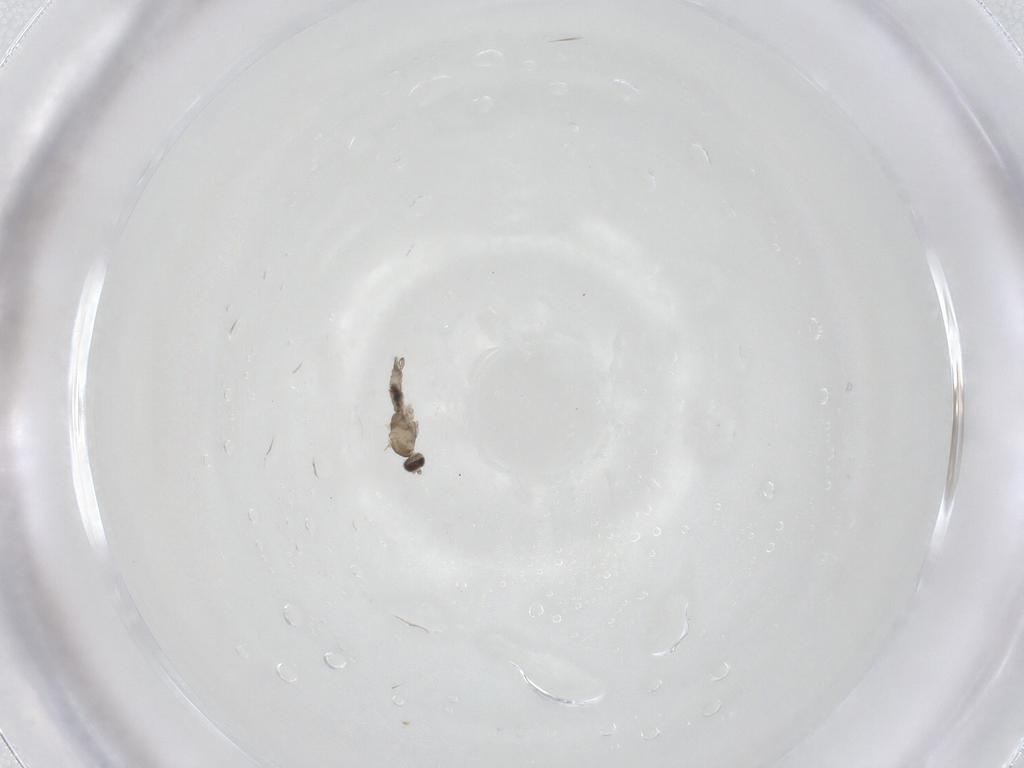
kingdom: Animalia
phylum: Arthropoda
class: Insecta
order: Diptera
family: Cecidomyiidae
